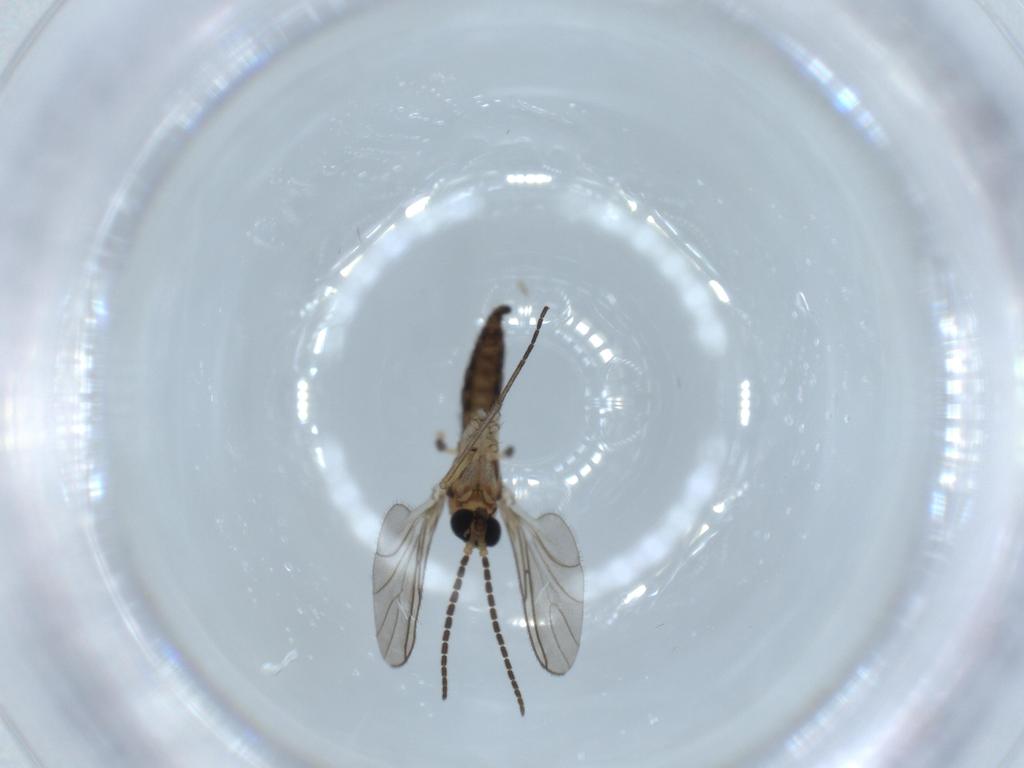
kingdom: Animalia
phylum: Arthropoda
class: Insecta
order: Diptera
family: Sciaridae
